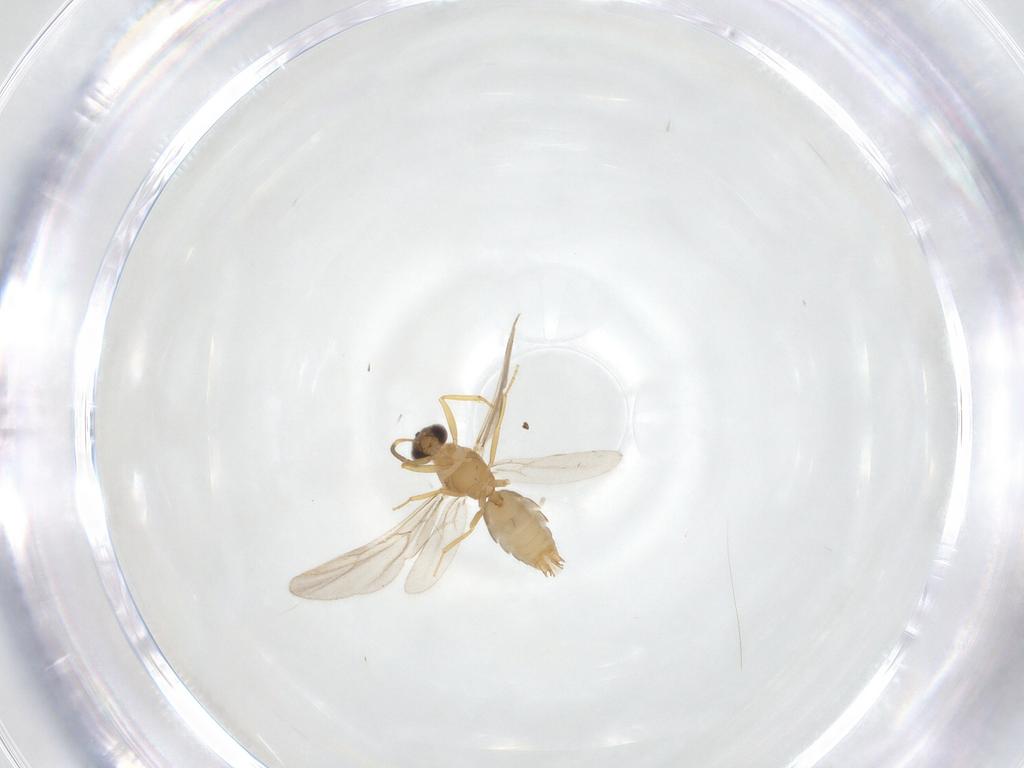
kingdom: Animalia
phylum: Arthropoda
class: Insecta
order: Hymenoptera
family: Formicidae
